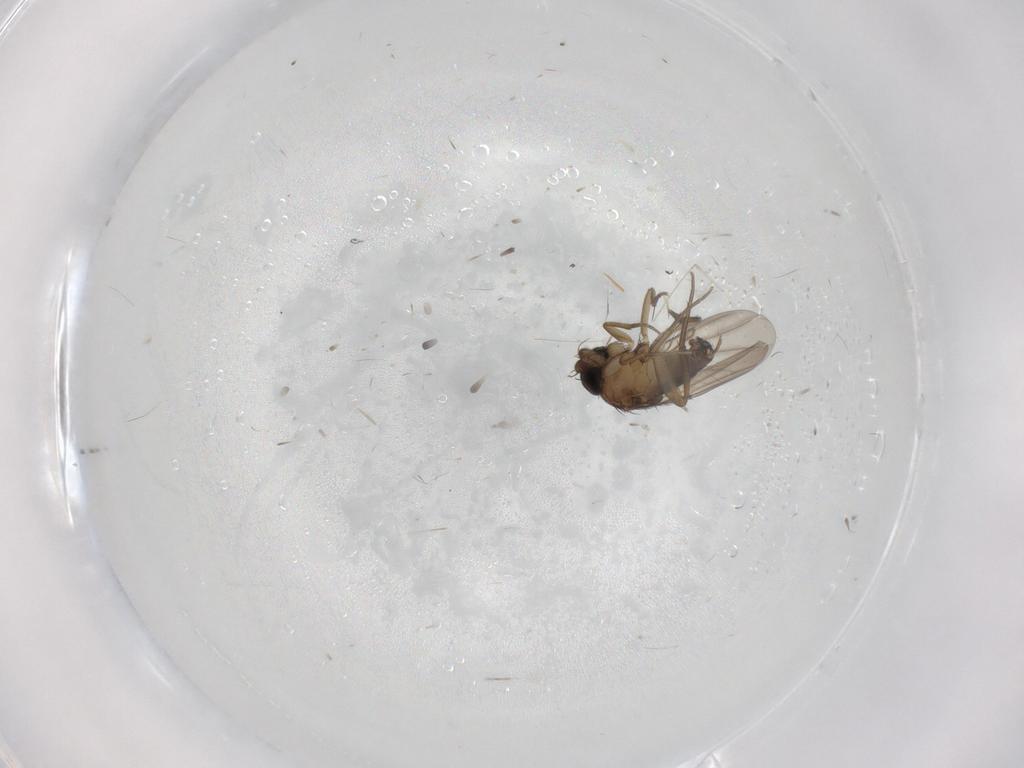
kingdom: Animalia
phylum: Arthropoda
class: Insecta
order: Diptera
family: Phoridae
